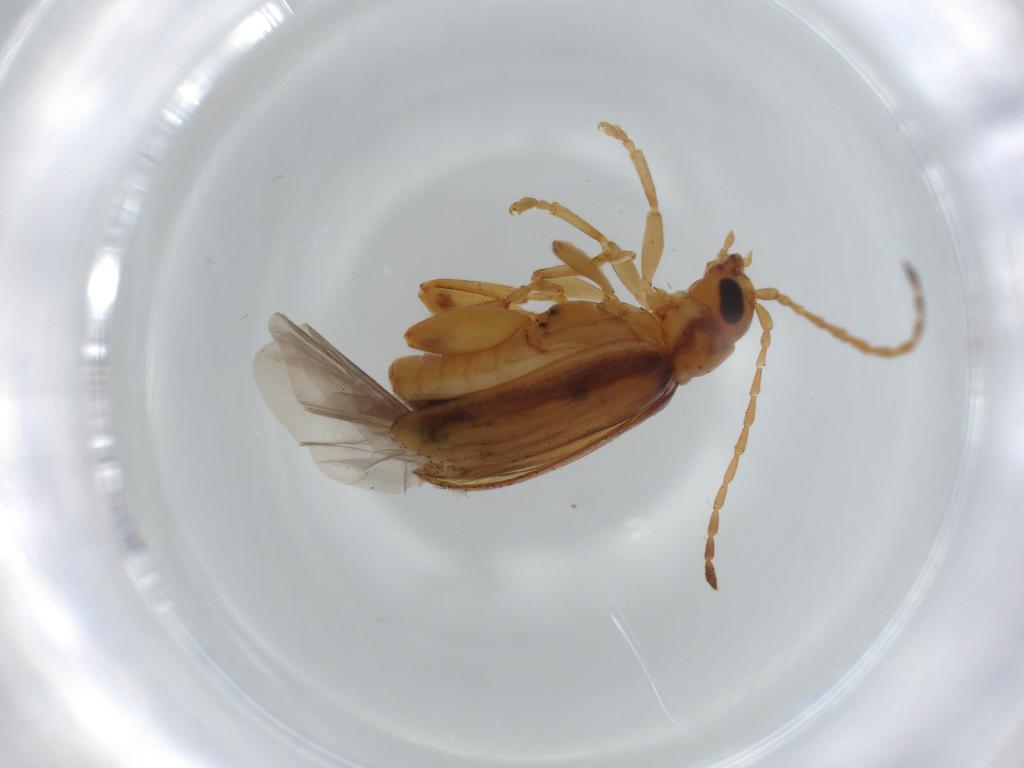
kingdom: Animalia
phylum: Arthropoda
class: Insecta
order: Coleoptera
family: Chrysomelidae
